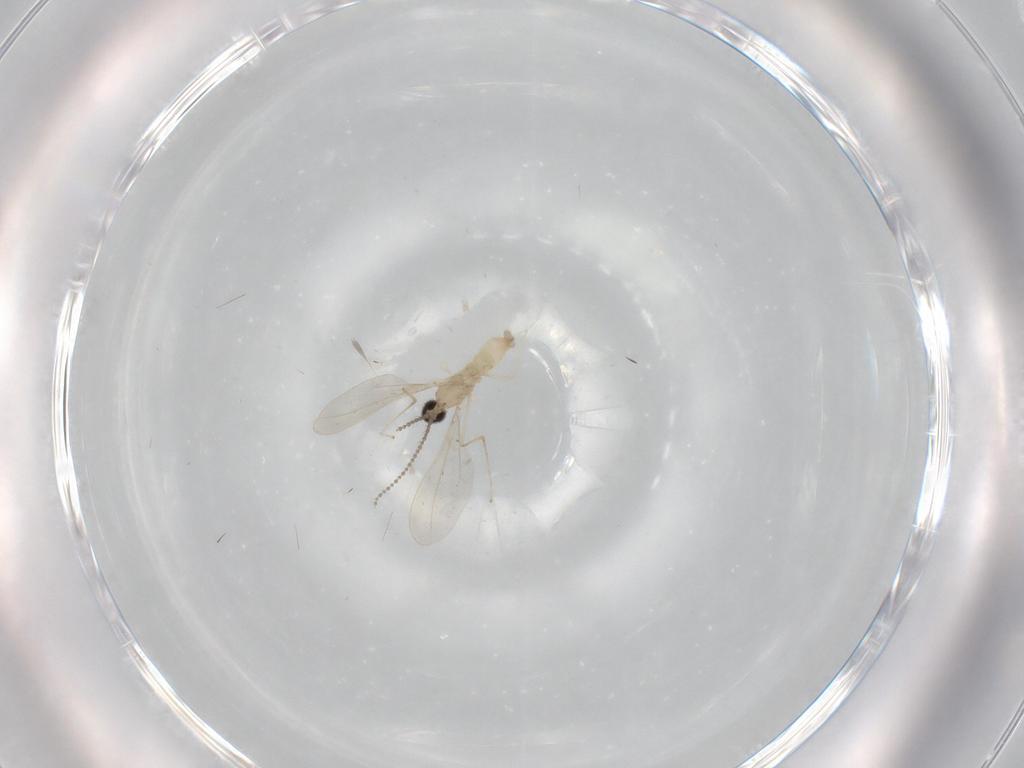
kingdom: Animalia
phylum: Arthropoda
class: Insecta
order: Diptera
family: Cecidomyiidae
